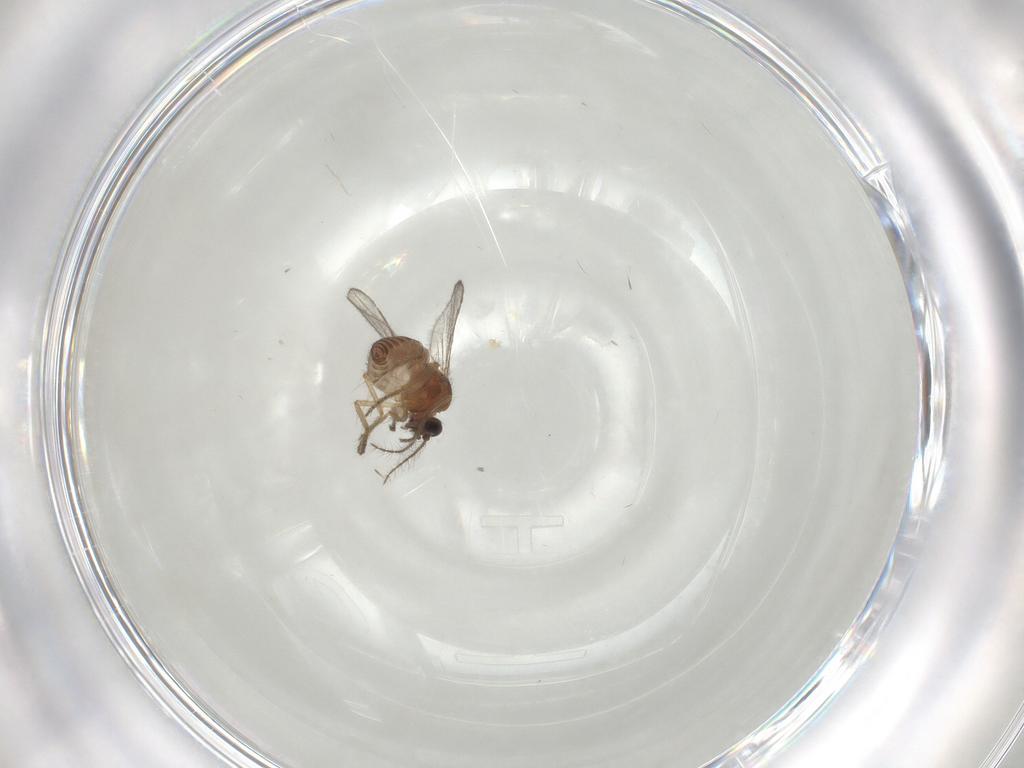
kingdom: Animalia
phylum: Arthropoda
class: Insecta
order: Diptera
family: Ceratopogonidae
